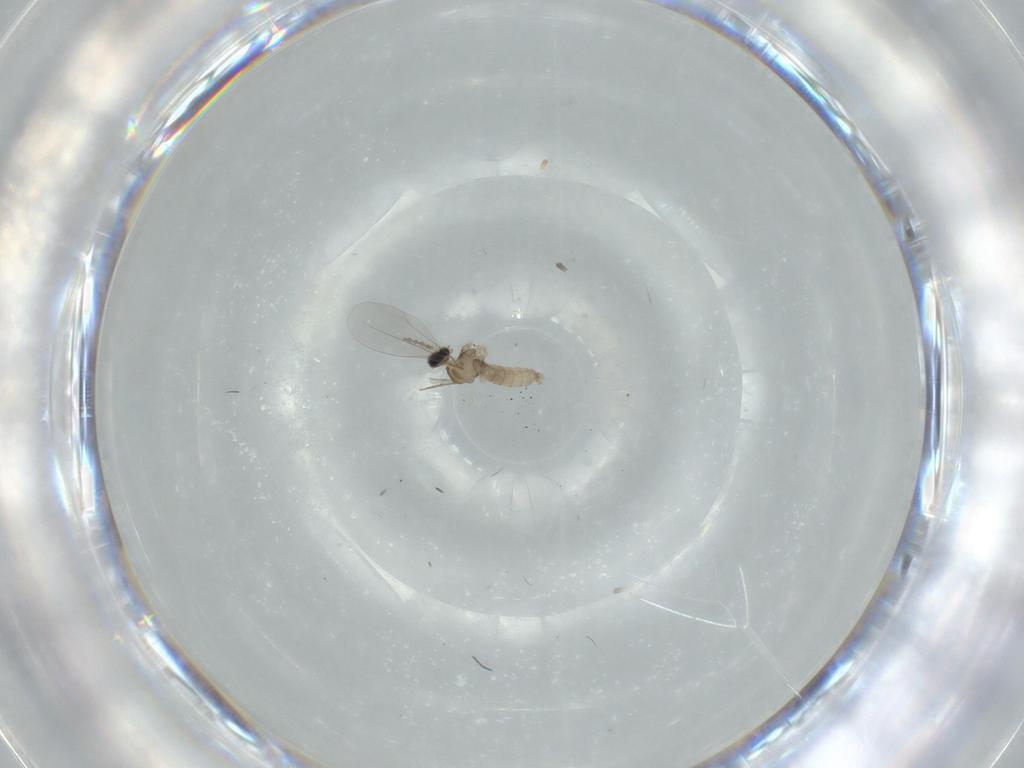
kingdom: Animalia
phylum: Arthropoda
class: Insecta
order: Diptera
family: Cecidomyiidae
